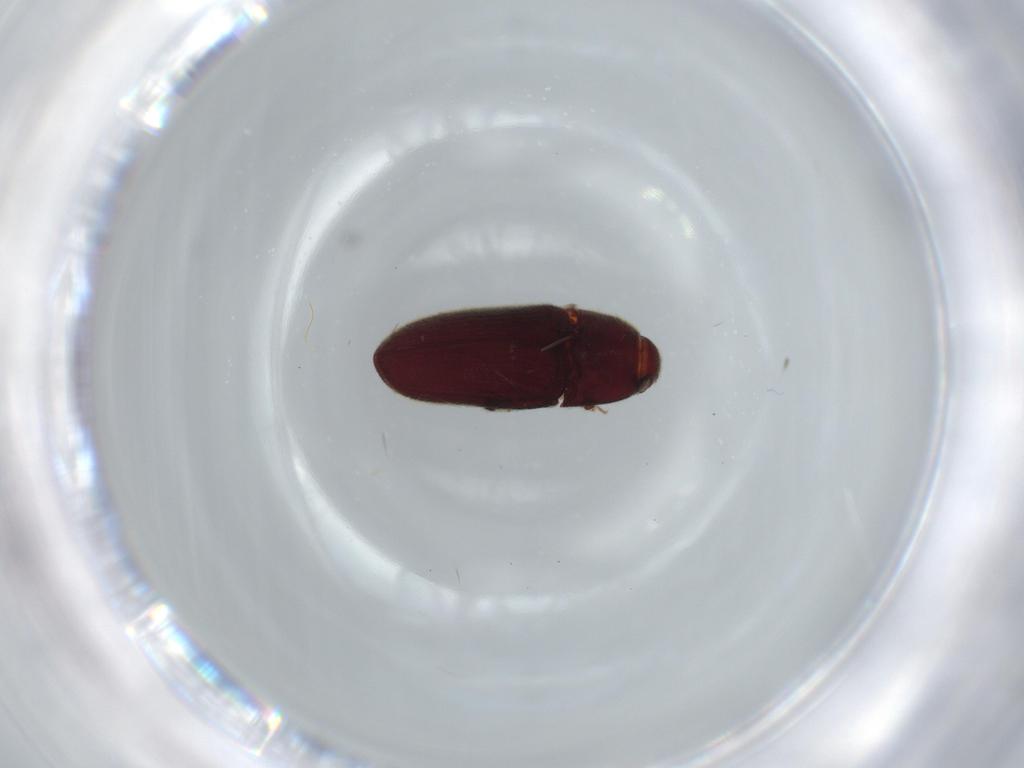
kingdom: Animalia
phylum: Arthropoda
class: Insecta
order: Coleoptera
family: Throscidae
